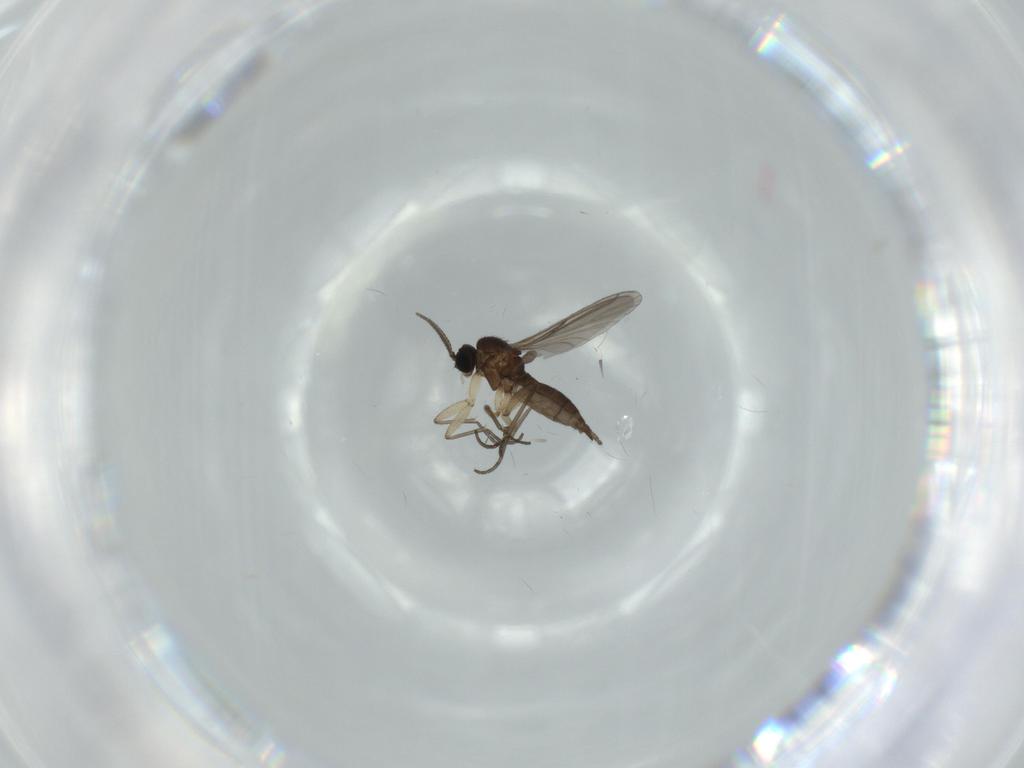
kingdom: Animalia
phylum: Arthropoda
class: Insecta
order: Diptera
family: Sciaridae
